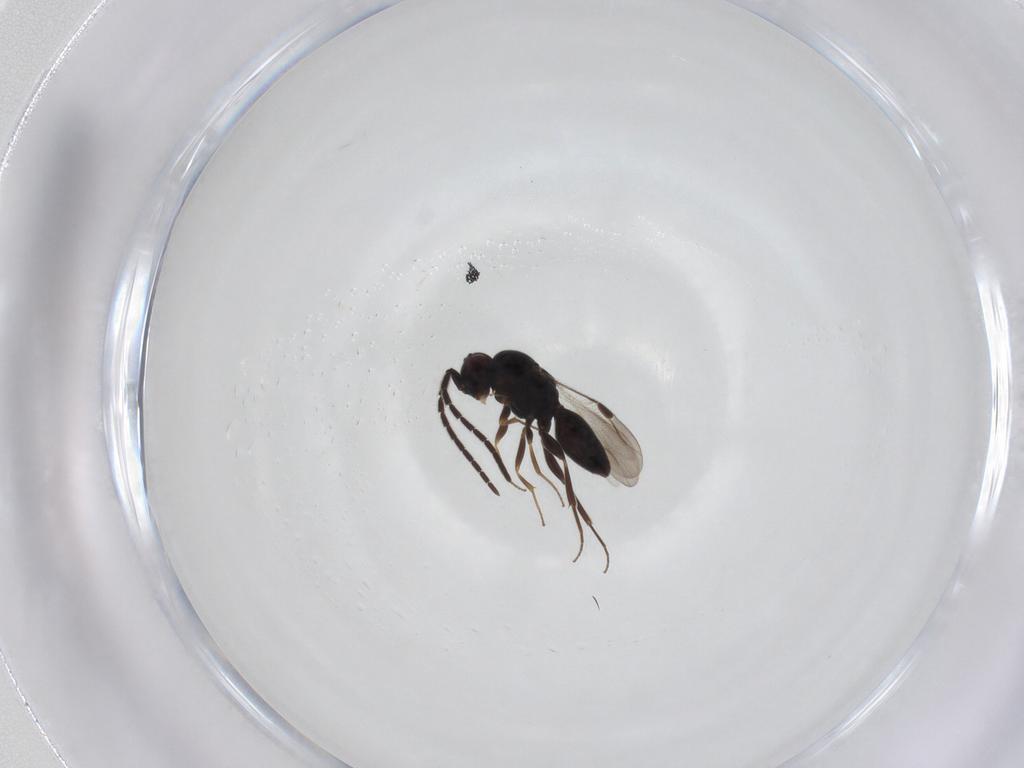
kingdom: Animalia
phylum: Arthropoda
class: Insecta
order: Hymenoptera
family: Megaspilidae
